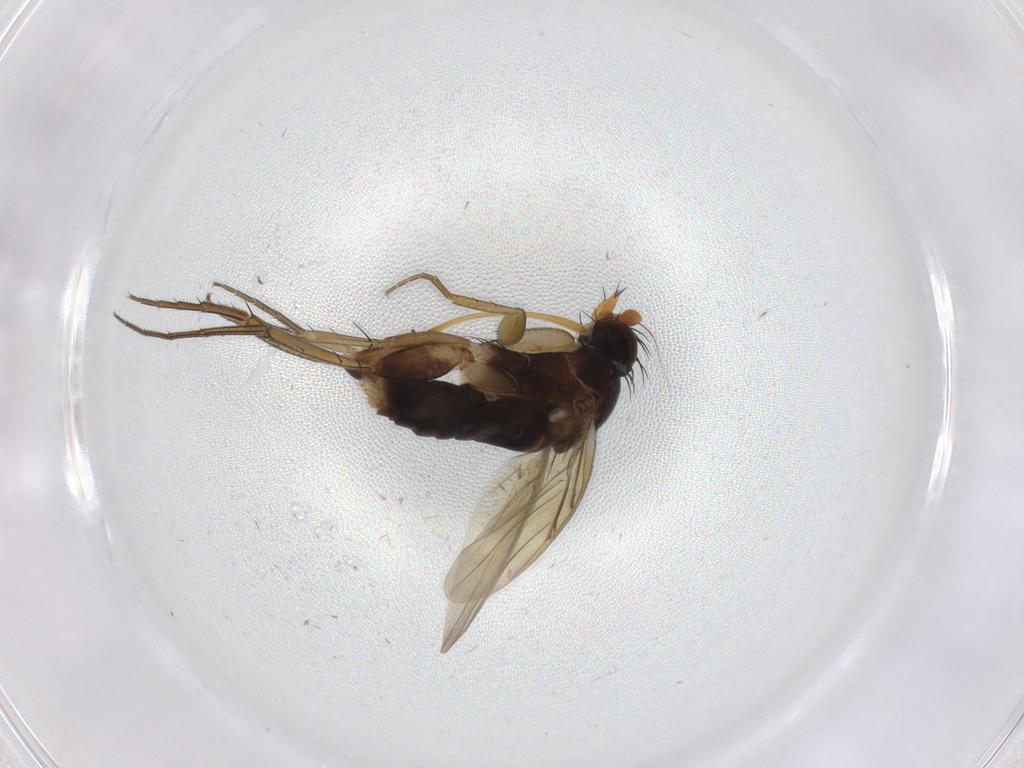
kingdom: Animalia
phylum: Arthropoda
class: Insecta
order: Diptera
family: Phoridae
